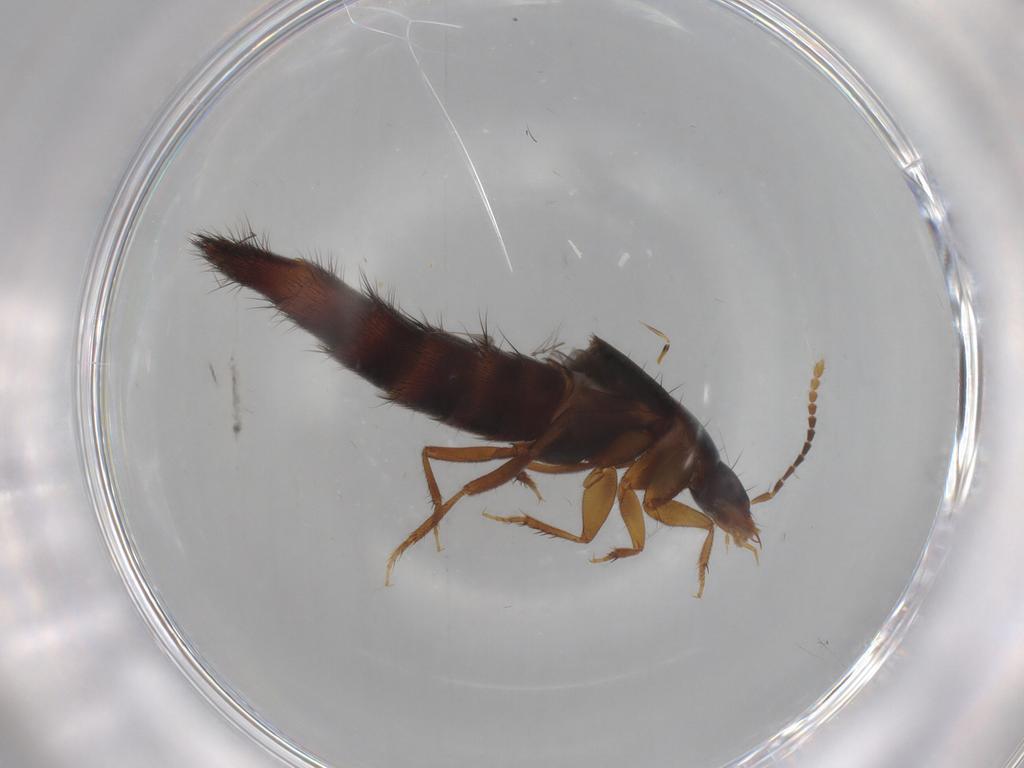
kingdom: Animalia
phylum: Arthropoda
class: Insecta
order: Coleoptera
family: Staphylinidae
